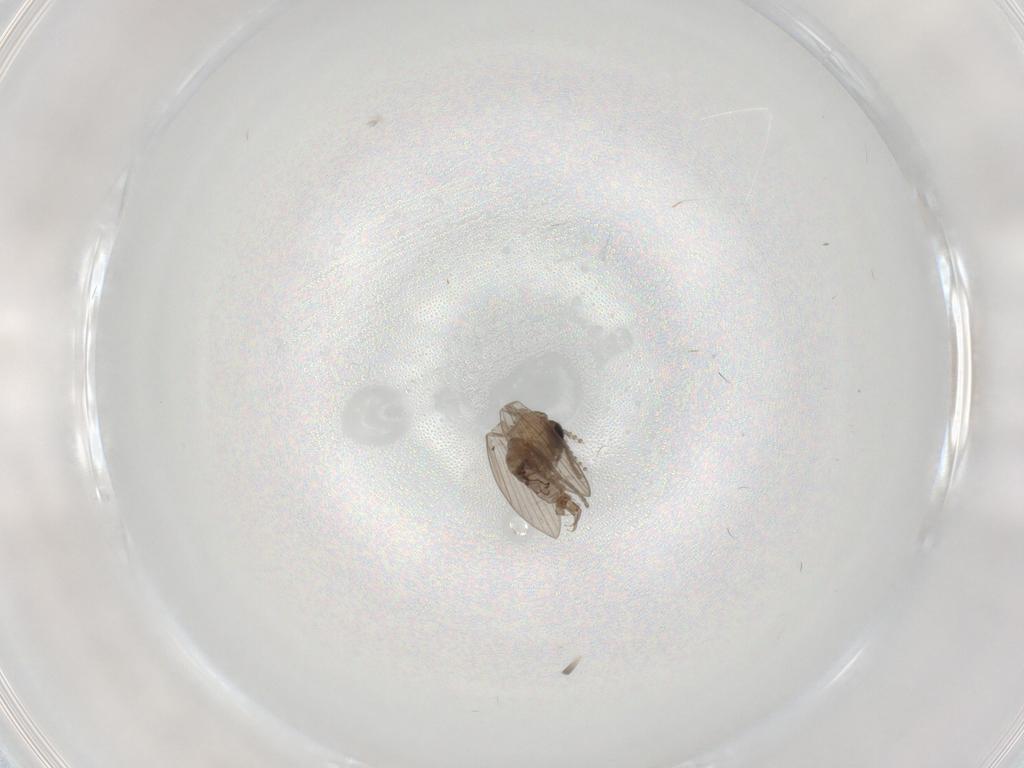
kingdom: Animalia
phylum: Arthropoda
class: Insecta
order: Diptera
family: Psychodidae
